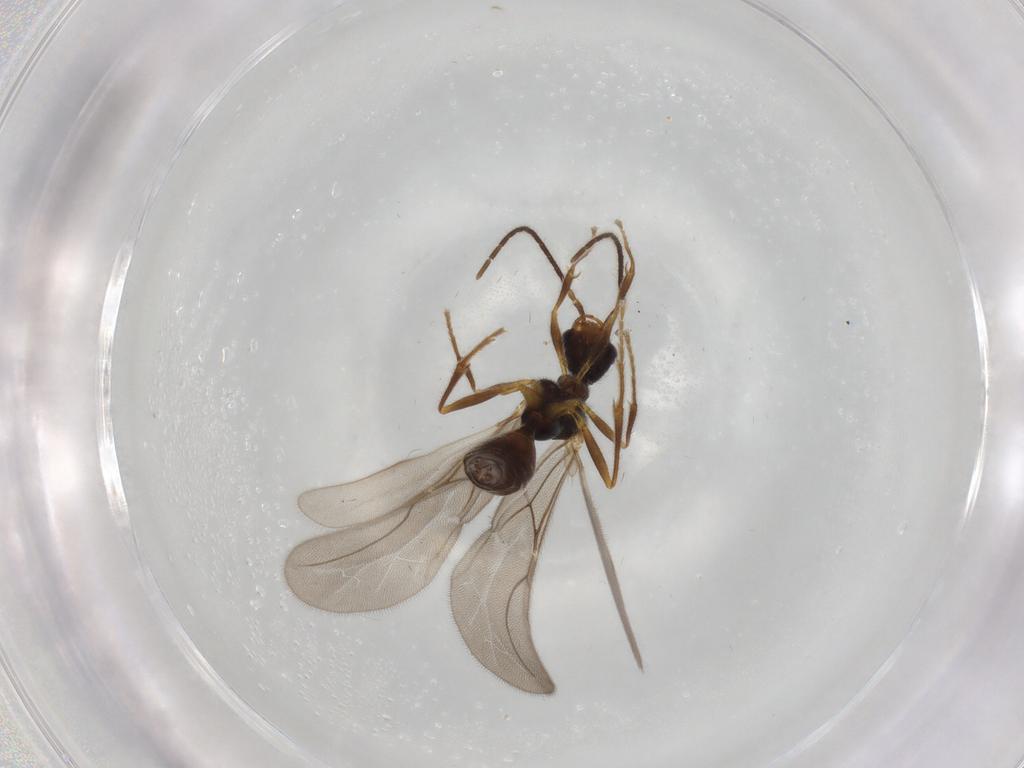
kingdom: Animalia
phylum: Arthropoda
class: Insecta
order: Hymenoptera
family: Bethylidae
